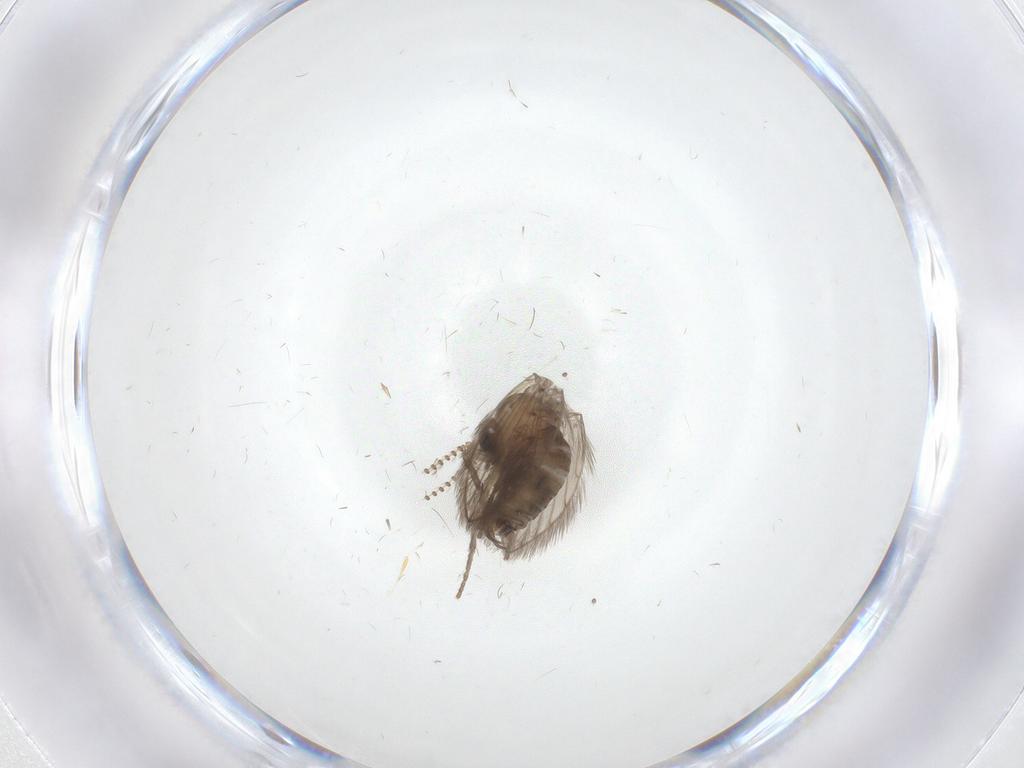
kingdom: Animalia
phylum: Arthropoda
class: Insecta
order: Diptera
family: Psychodidae
